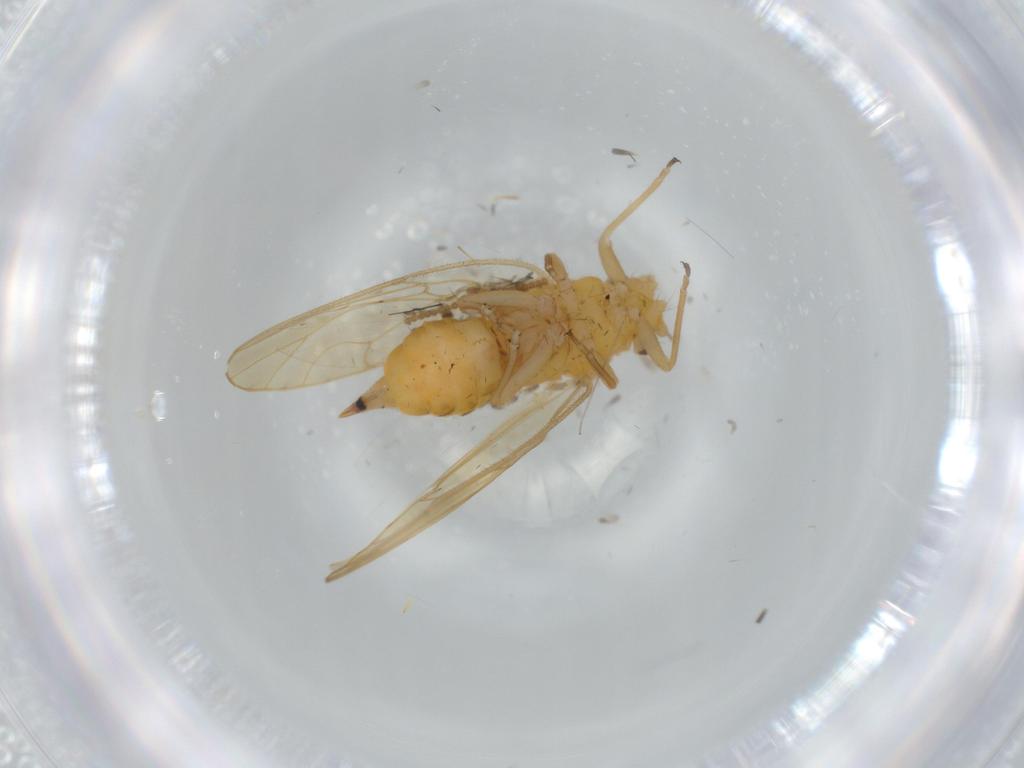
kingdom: Animalia
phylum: Arthropoda
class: Insecta
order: Hemiptera
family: Psyllidae
